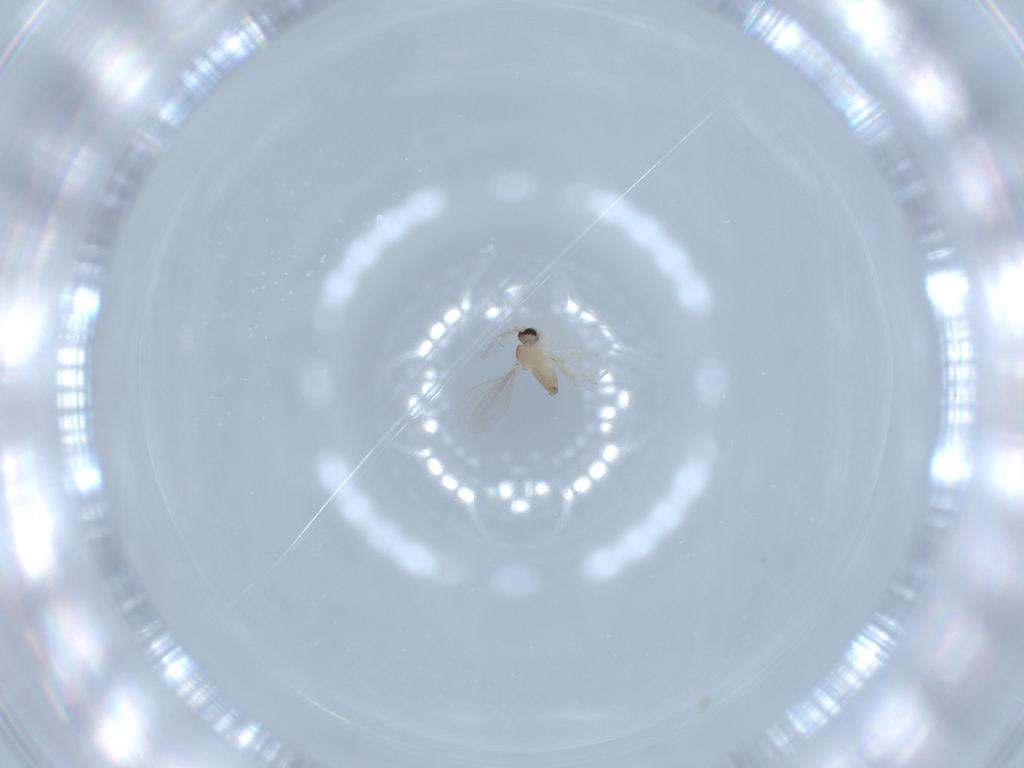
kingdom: Animalia
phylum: Arthropoda
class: Insecta
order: Diptera
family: Cecidomyiidae
